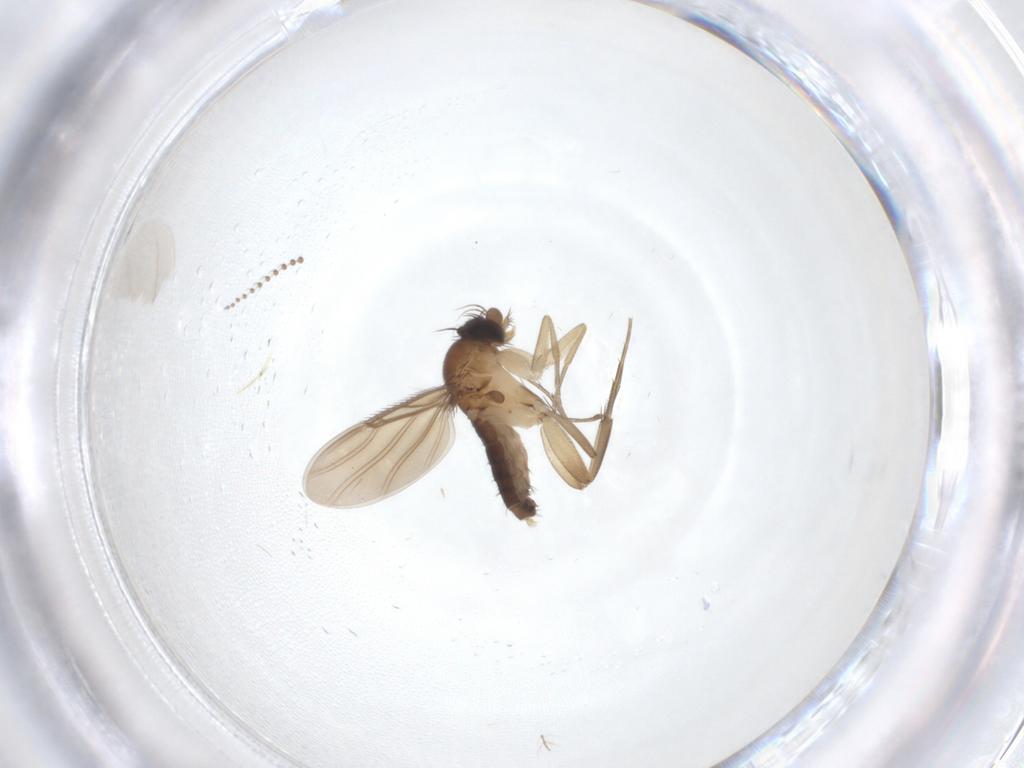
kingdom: Animalia
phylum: Arthropoda
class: Insecta
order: Diptera
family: Phoridae
